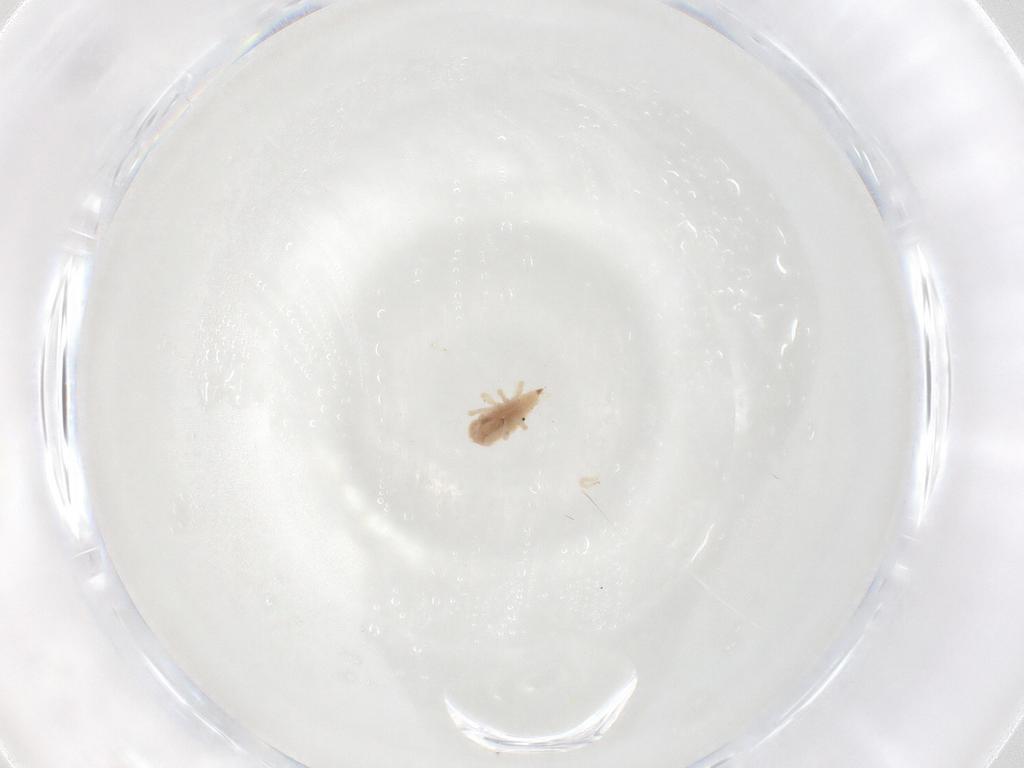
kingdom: Animalia
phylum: Arthropoda
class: Arachnida
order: Trombidiformes
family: Bdellidae
